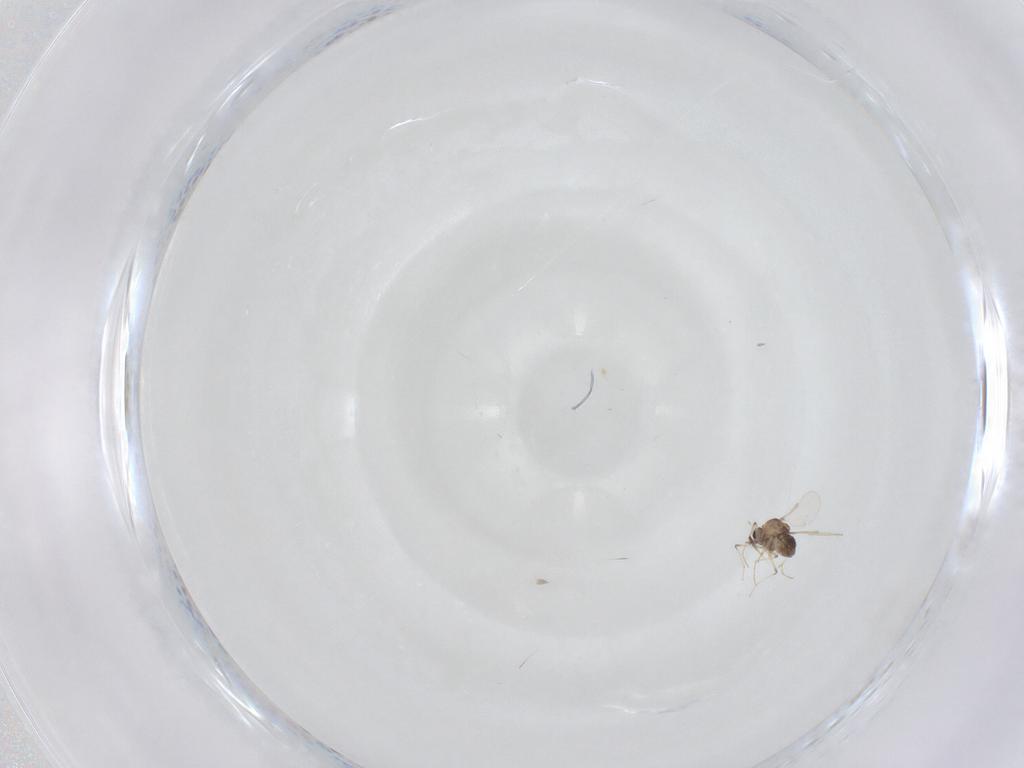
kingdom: Animalia
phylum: Arthropoda
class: Insecta
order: Diptera
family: Chironomidae
